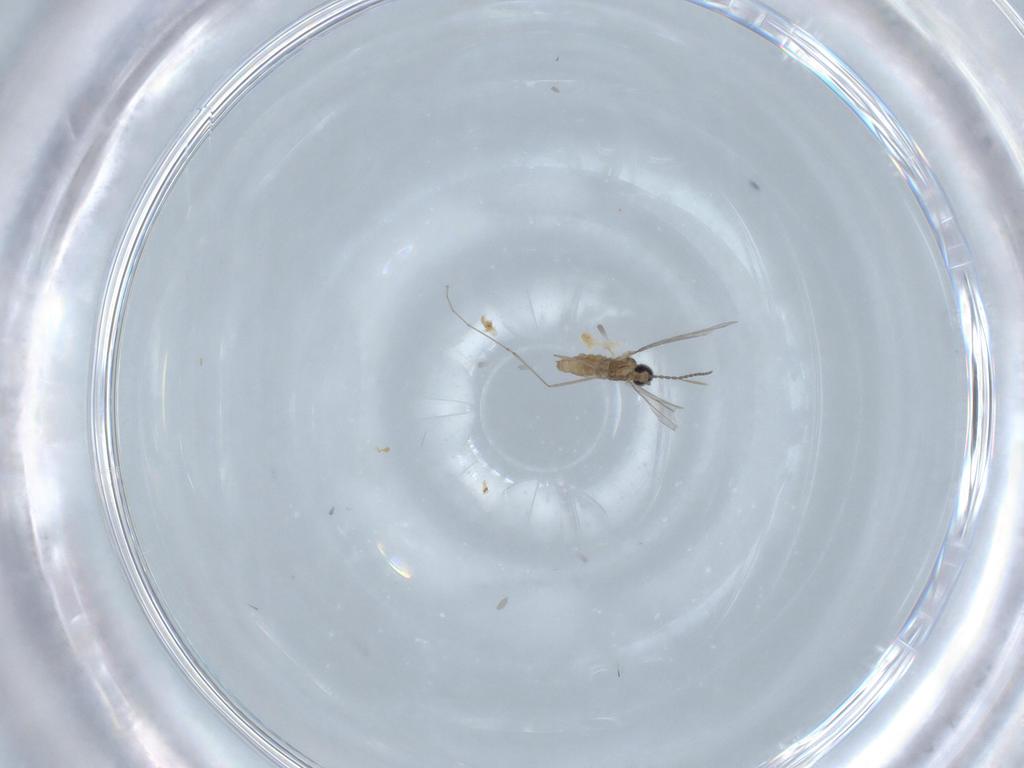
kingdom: Animalia
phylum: Arthropoda
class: Insecta
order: Diptera
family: Cecidomyiidae
